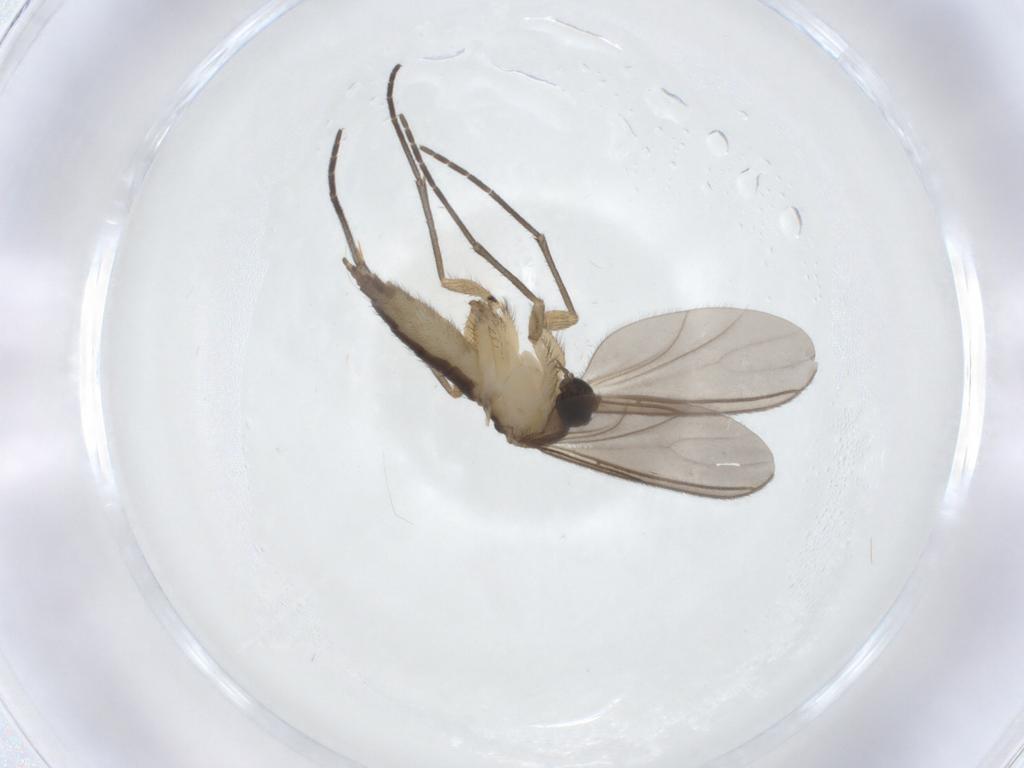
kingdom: Animalia
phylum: Arthropoda
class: Insecta
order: Diptera
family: Sciaridae
